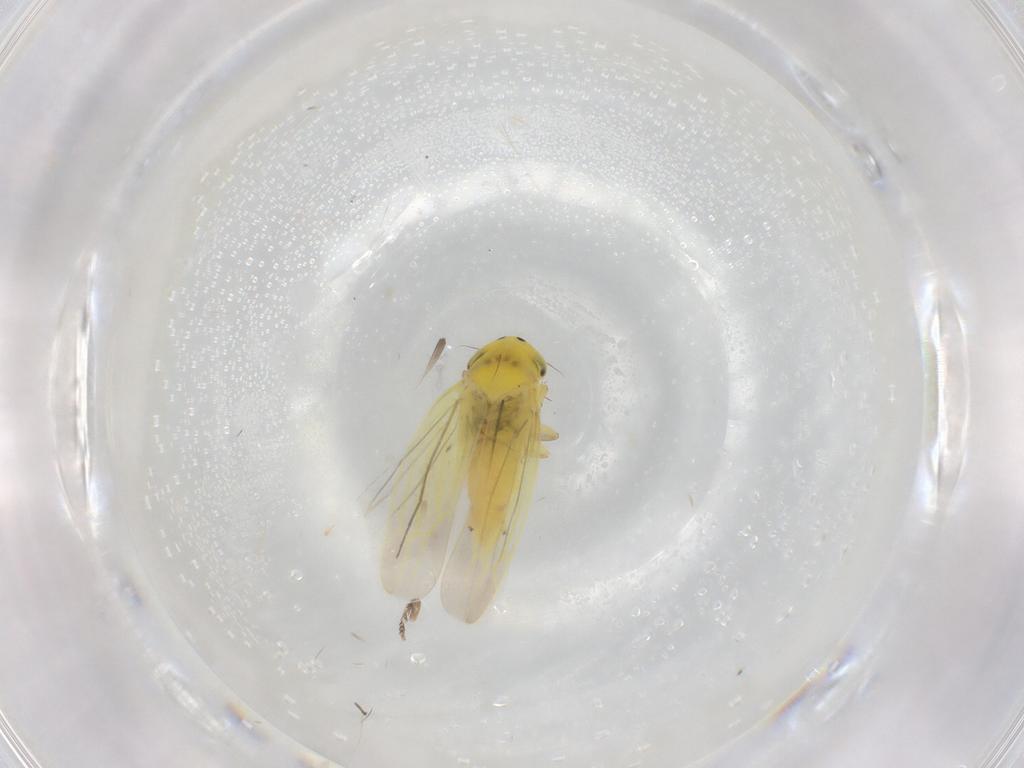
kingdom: Animalia
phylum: Arthropoda
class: Insecta
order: Hemiptera
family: Cicadellidae
